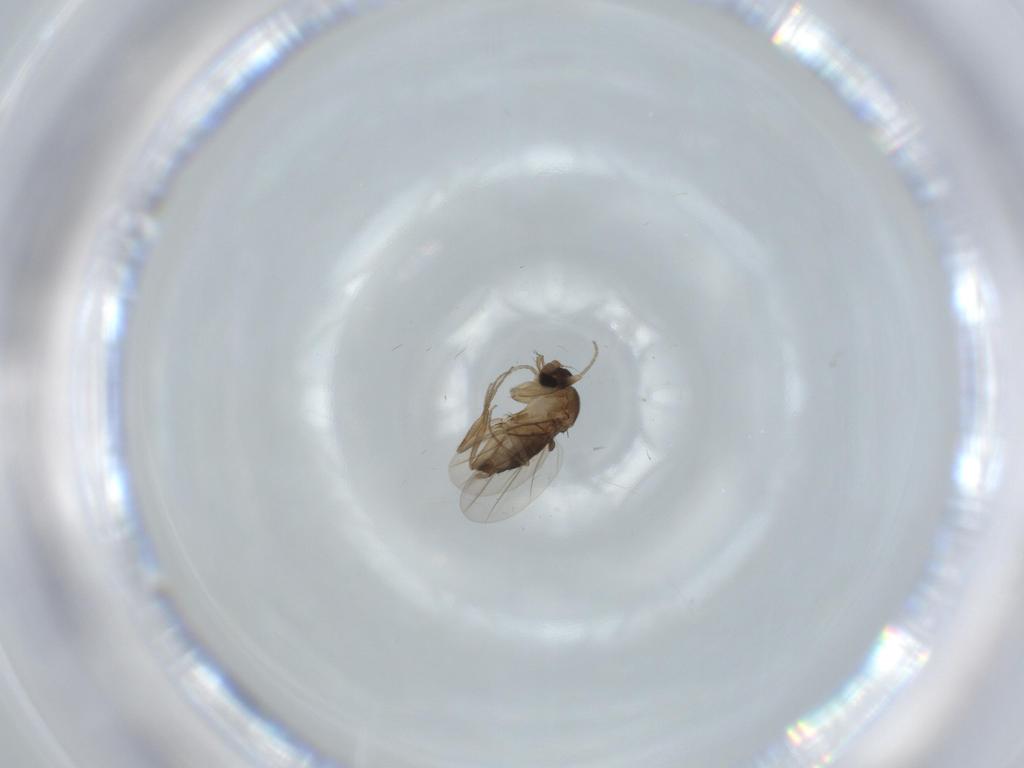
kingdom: Animalia
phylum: Arthropoda
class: Insecta
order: Diptera
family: Phoridae
